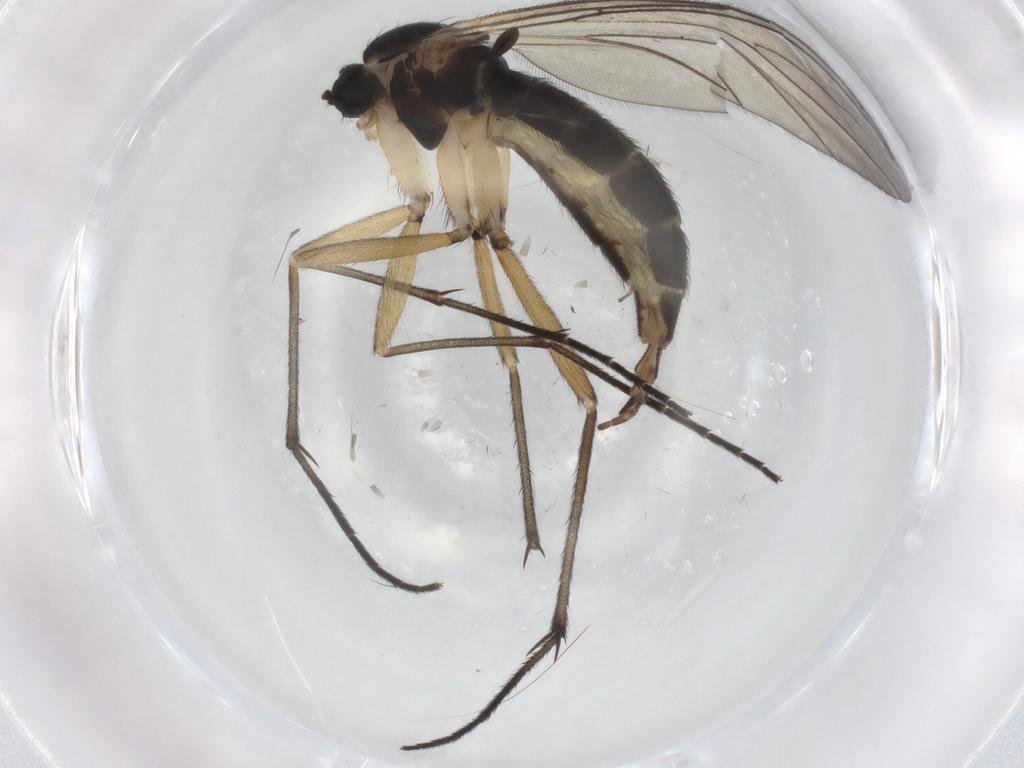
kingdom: Animalia
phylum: Arthropoda
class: Insecta
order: Diptera
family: Sciaridae
